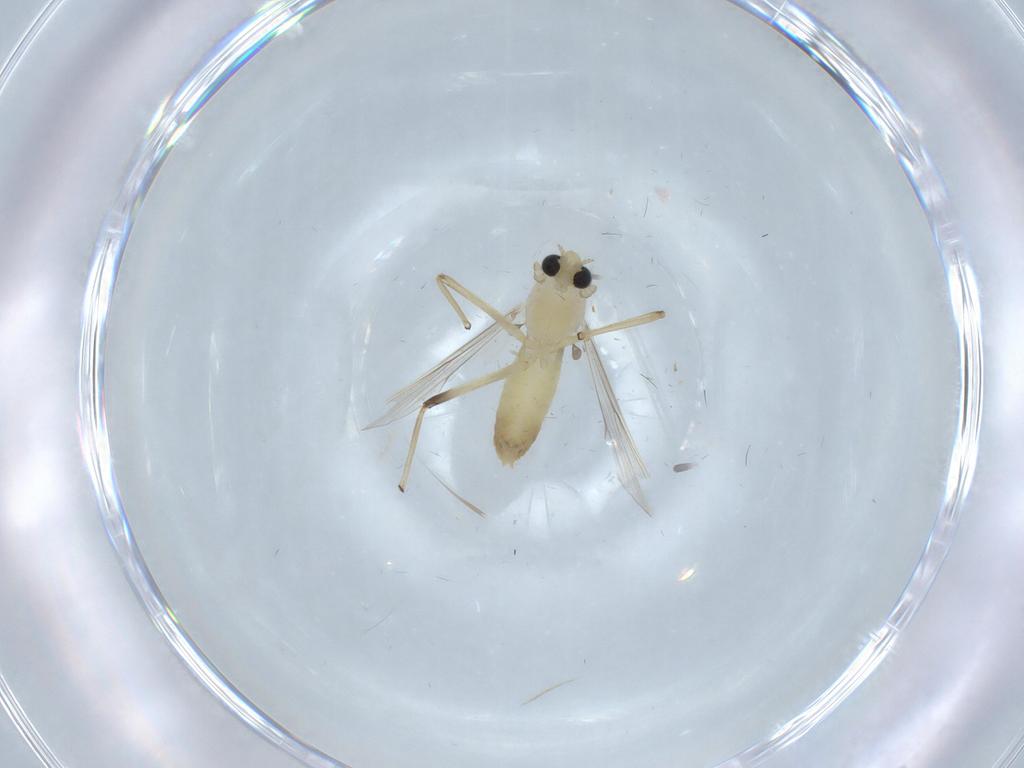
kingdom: Animalia
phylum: Arthropoda
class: Insecta
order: Diptera
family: Chironomidae
